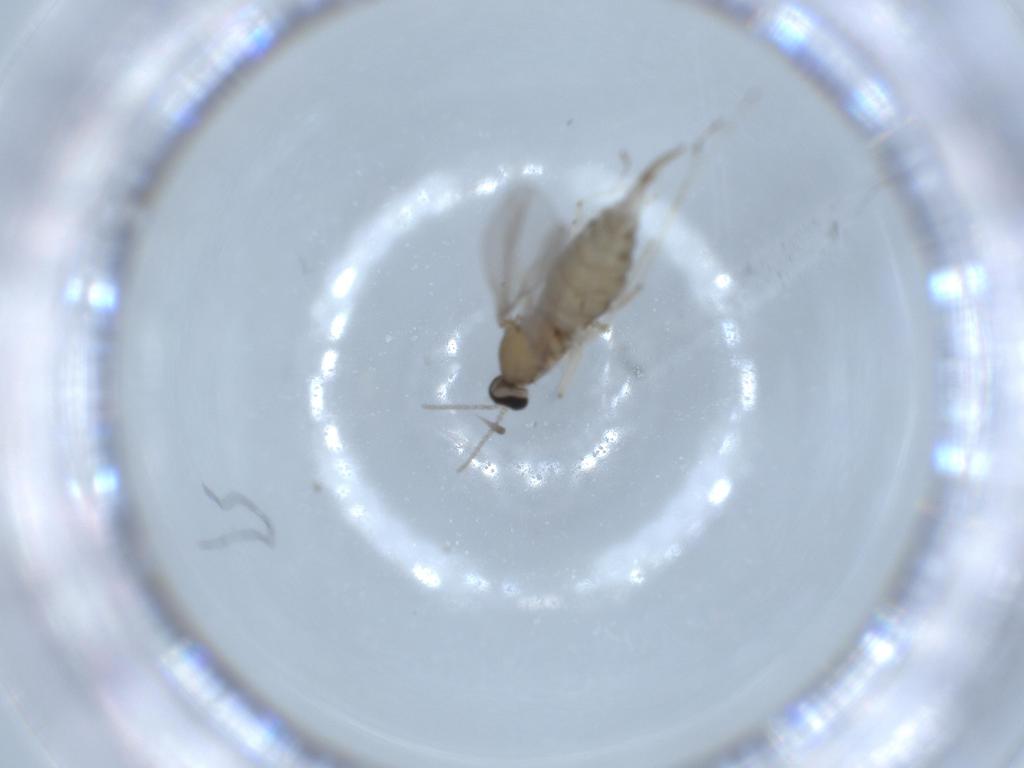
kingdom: Animalia
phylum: Arthropoda
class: Insecta
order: Diptera
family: Cecidomyiidae
